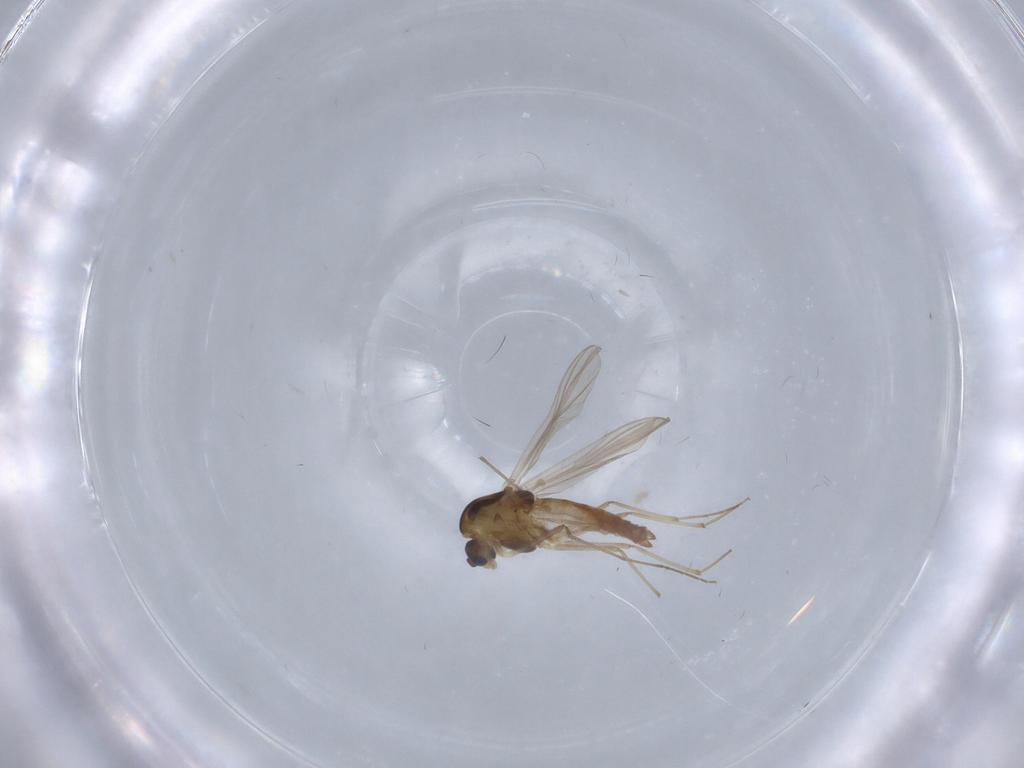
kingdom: Animalia
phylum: Arthropoda
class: Insecta
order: Diptera
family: Chironomidae
